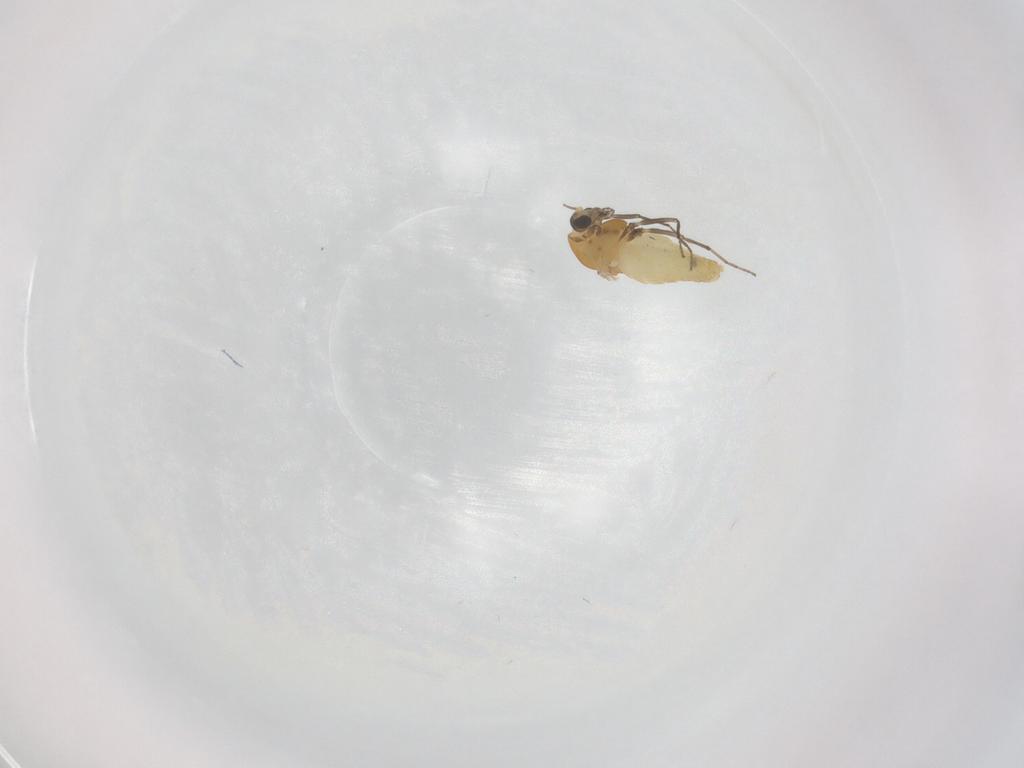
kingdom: Animalia
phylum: Arthropoda
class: Insecta
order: Diptera
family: Chironomidae
